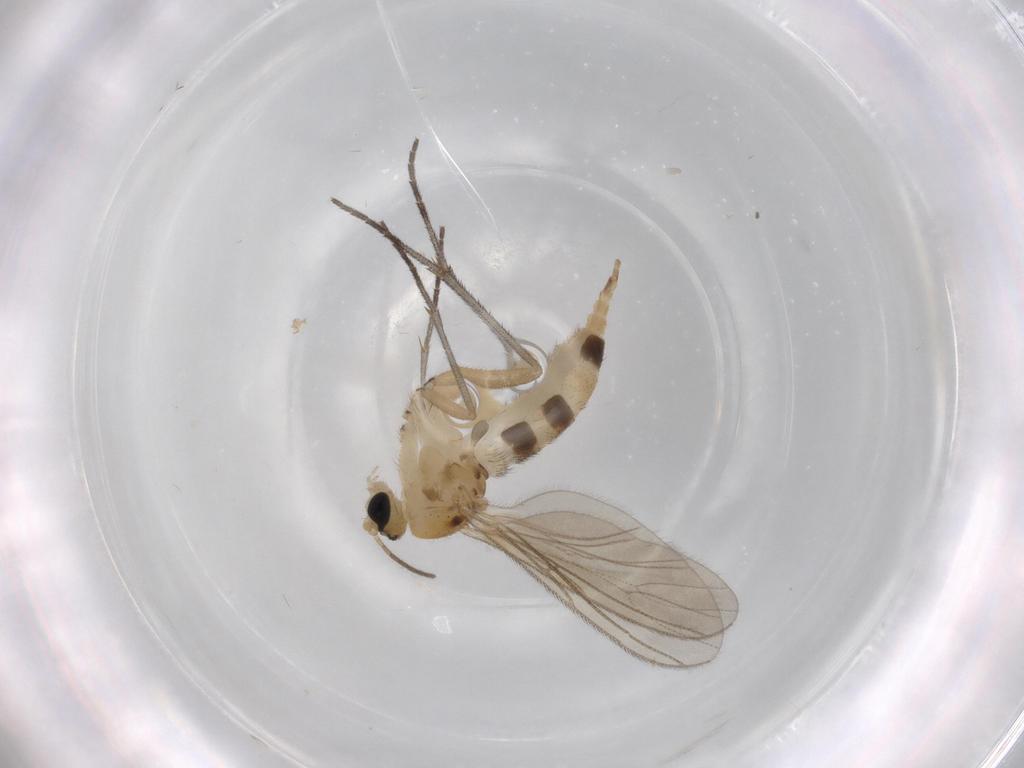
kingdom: Animalia
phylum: Arthropoda
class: Insecta
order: Diptera
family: Sciaridae
